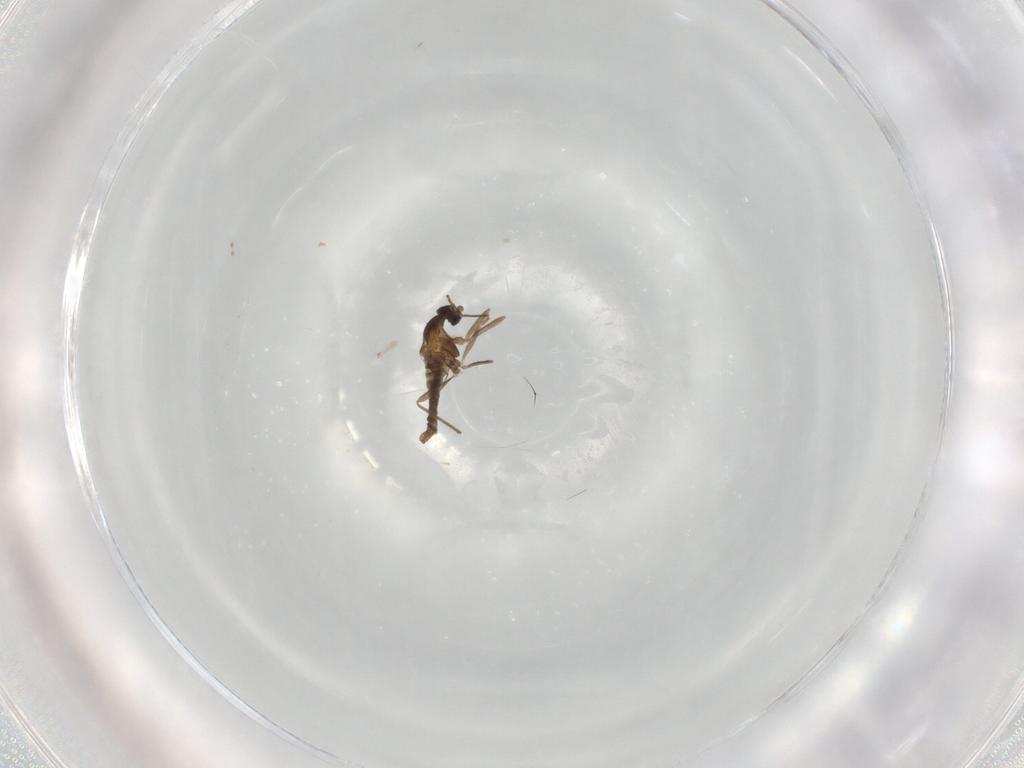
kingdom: Animalia
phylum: Arthropoda
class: Insecta
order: Diptera
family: Cecidomyiidae
